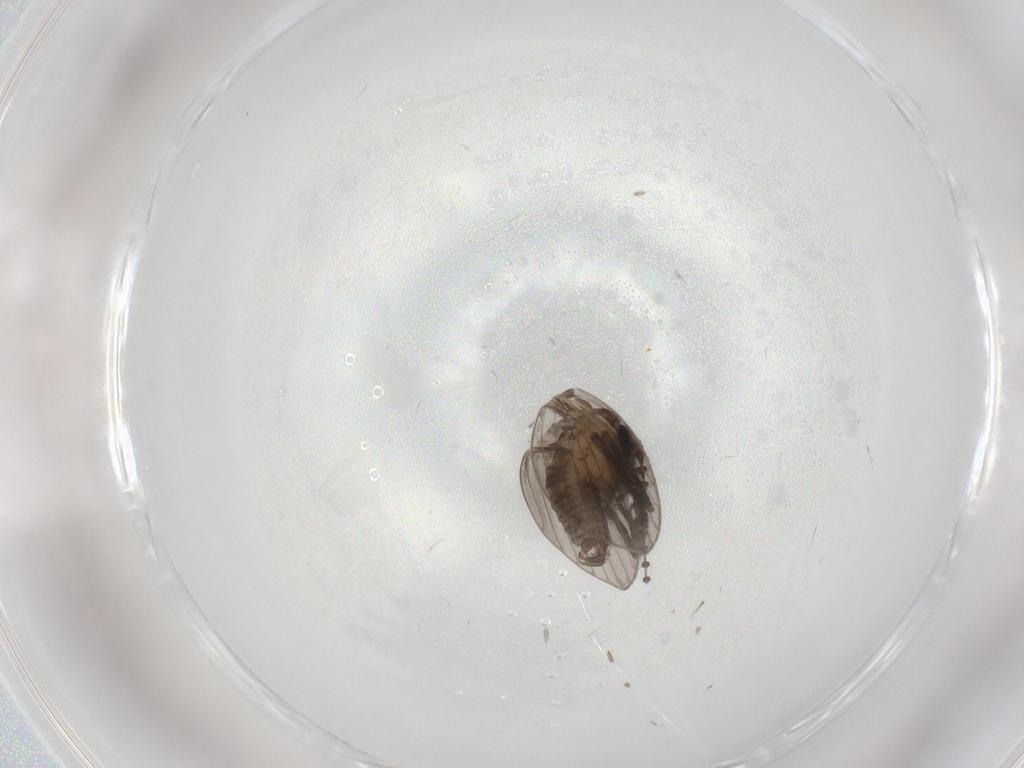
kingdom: Animalia
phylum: Arthropoda
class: Insecta
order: Diptera
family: Psychodidae
